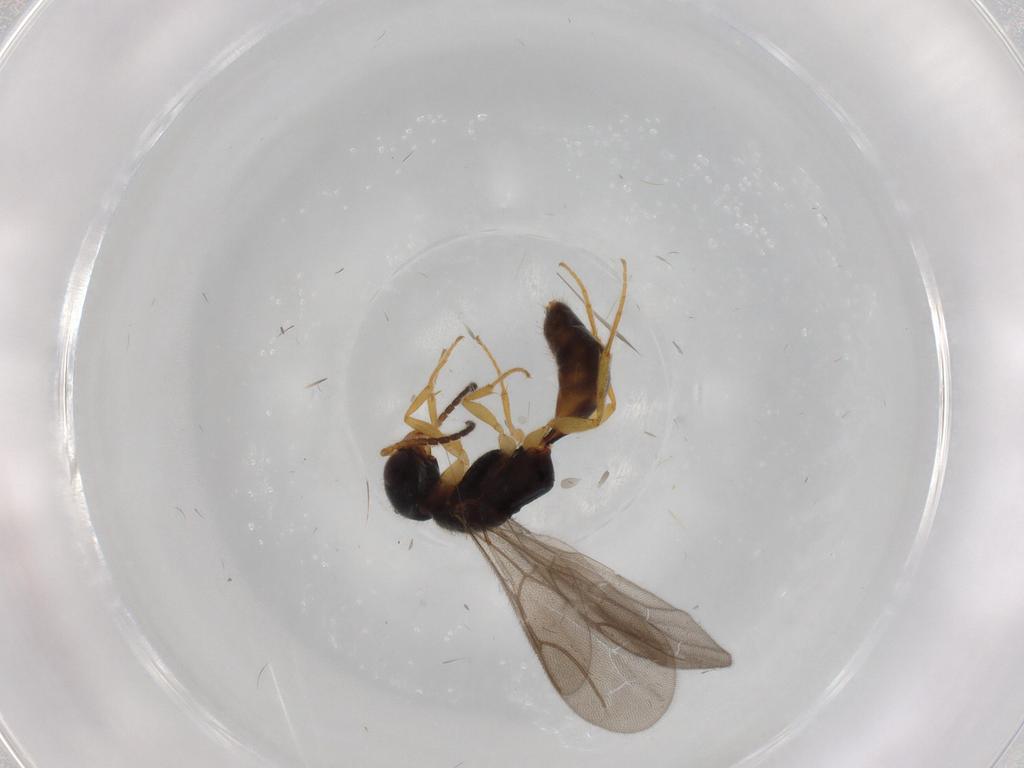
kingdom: Animalia
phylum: Arthropoda
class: Insecta
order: Hymenoptera
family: Bethylidae
